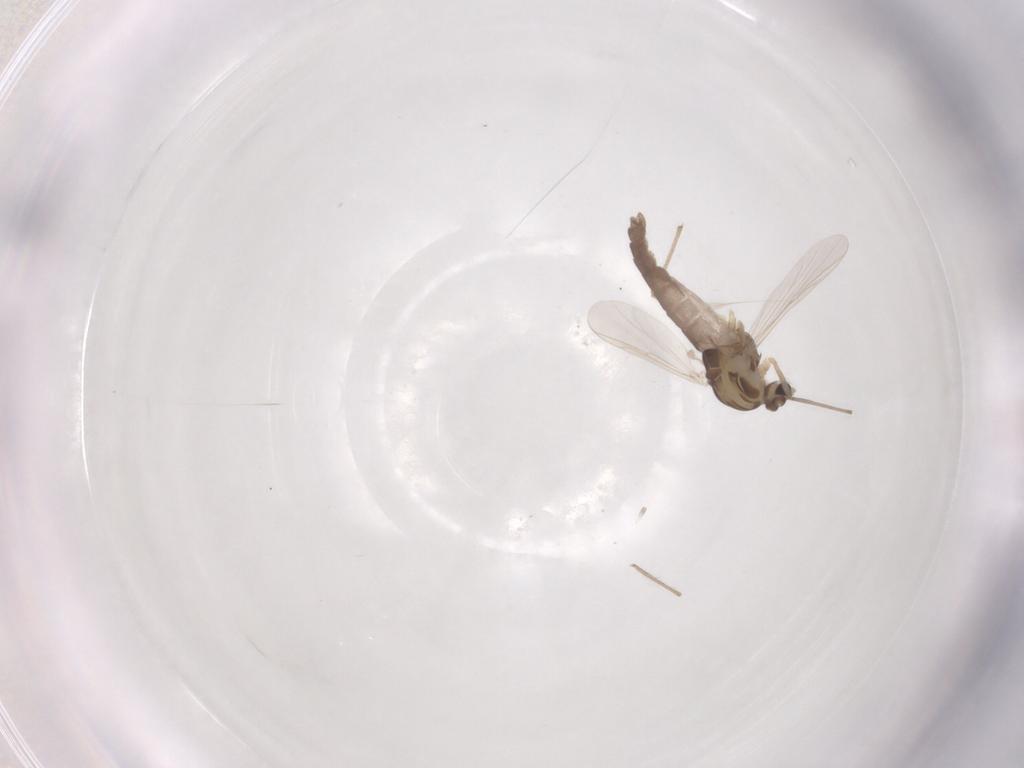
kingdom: Animalia
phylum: Arthropoda
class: Insecta
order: Diptera
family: Chironomidae
